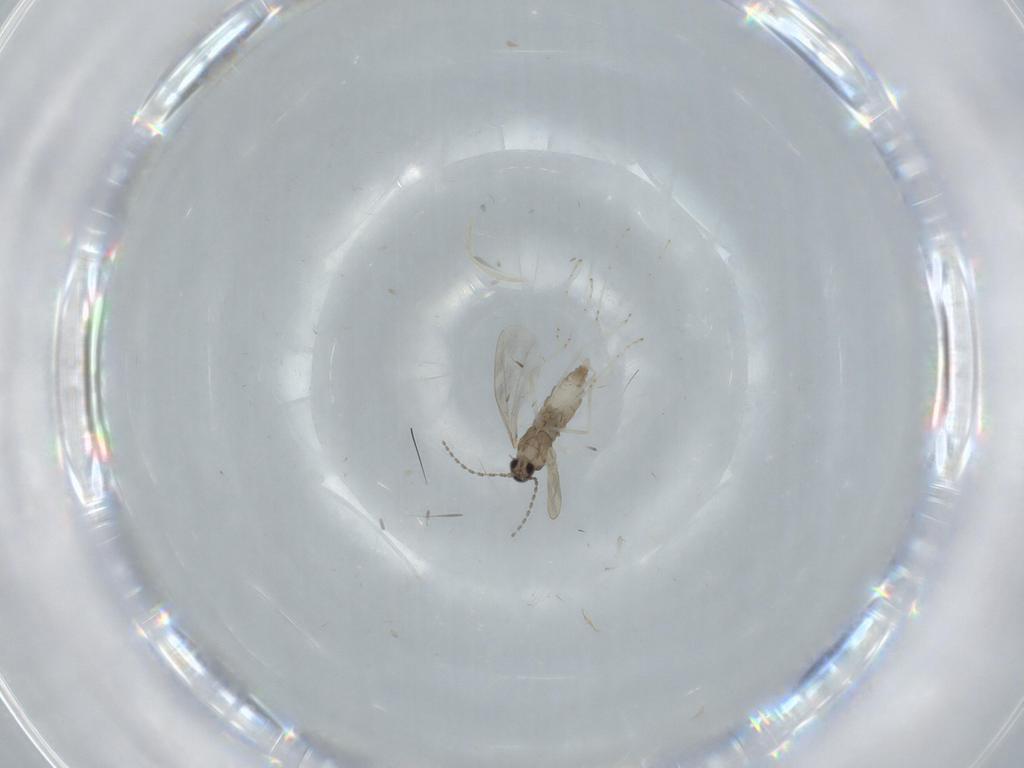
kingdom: Animalia
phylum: Arthropoda
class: Insecta
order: Diptera
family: Cecidomyiidae
